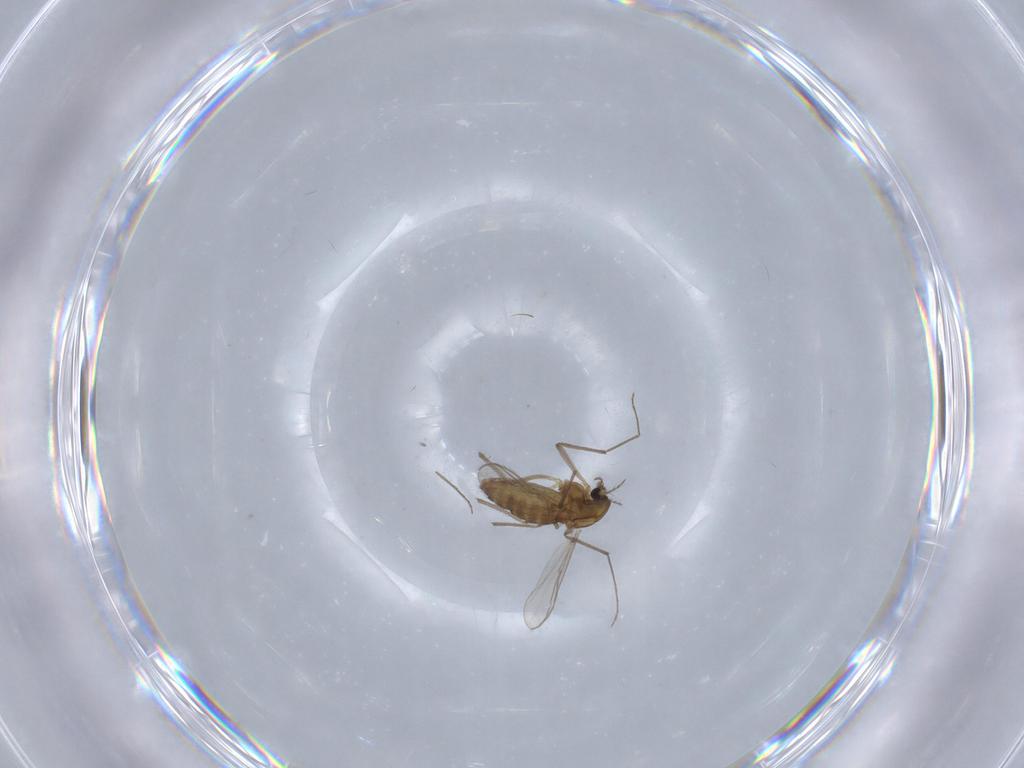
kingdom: Animalia
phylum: Arthropoda
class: Insecta
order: Diptera
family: Chironomidae
